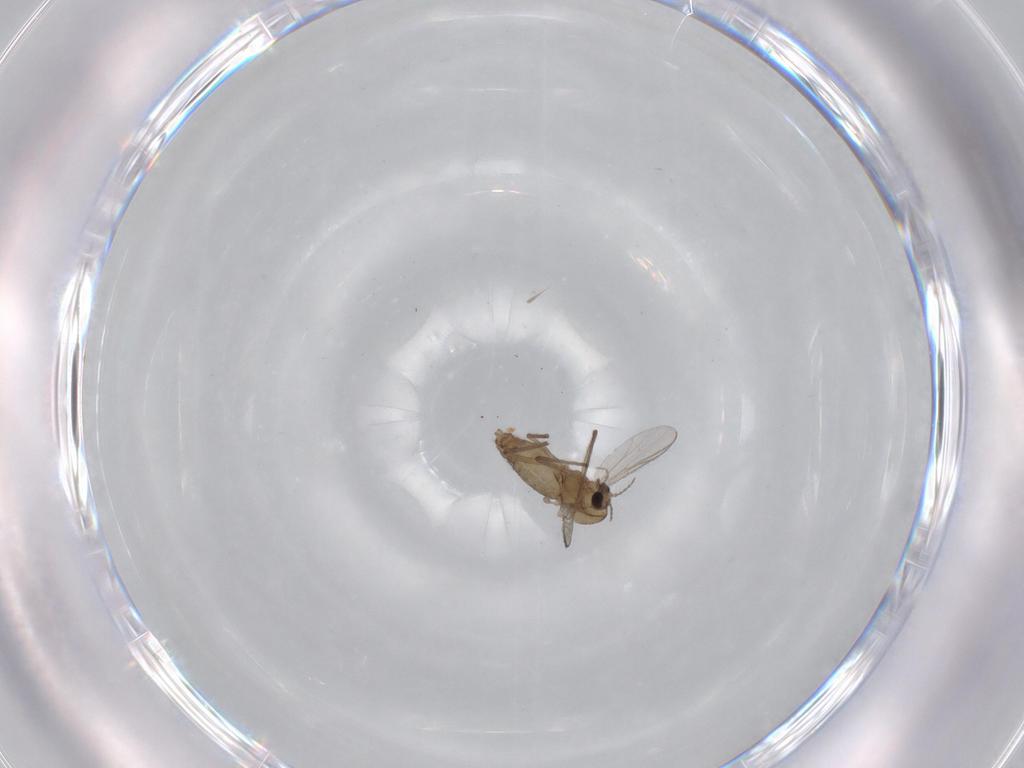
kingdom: Animalia
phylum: Arthropoda
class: Insecta
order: Diptera
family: Chironomidae
